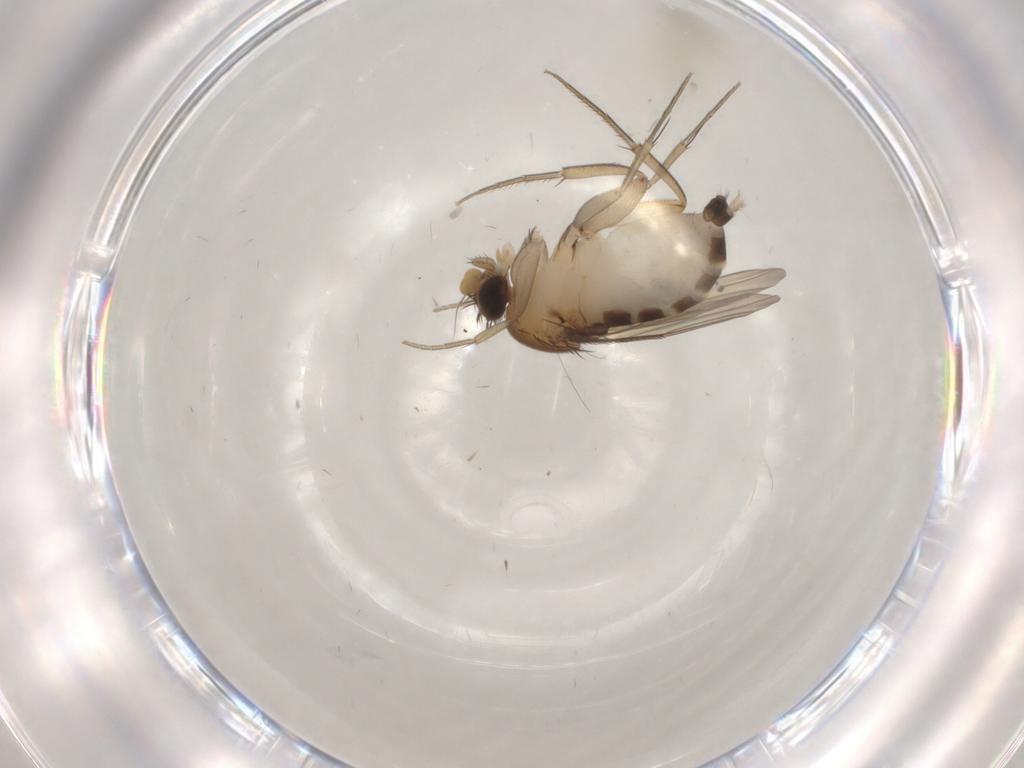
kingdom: Animalia
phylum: Arthropoda
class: Insecta
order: Diptera
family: Phoridae
